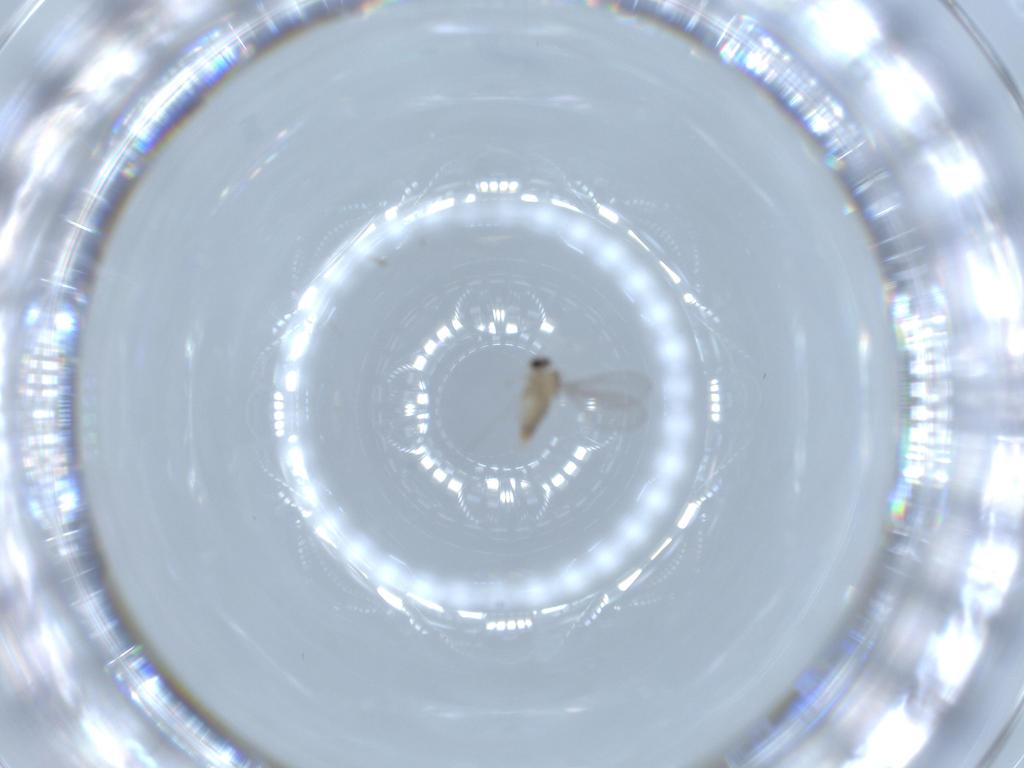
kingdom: Animalia
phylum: Arthropoda
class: Insecta
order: Diptera
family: Cecidomyiidae
